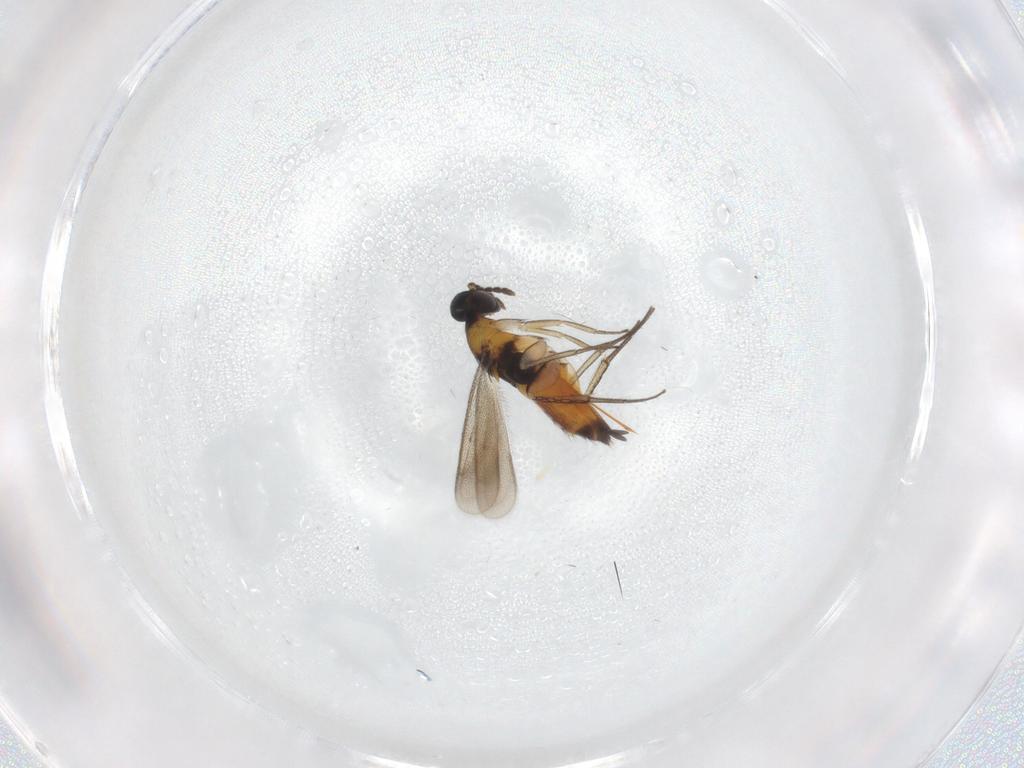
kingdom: Animalia
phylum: Arthropoda
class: Insecta
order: Hymenoptera
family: Eulophidae
